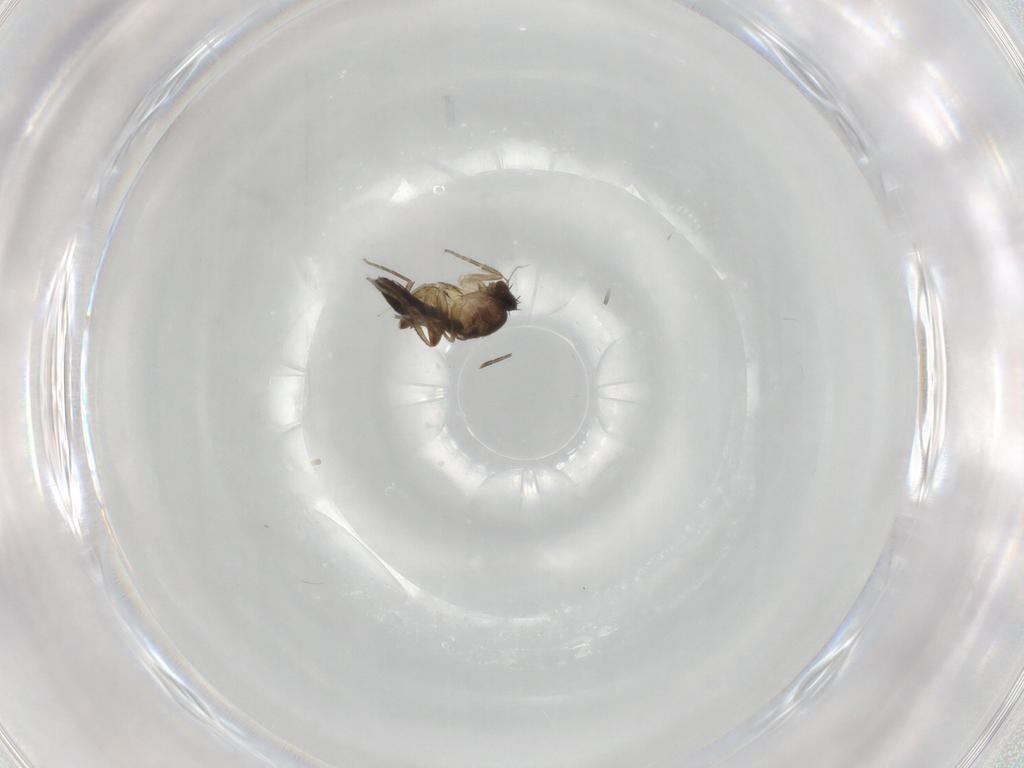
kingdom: Animalia
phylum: Arthropoda
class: Insecta
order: Diptera
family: Phoridae
